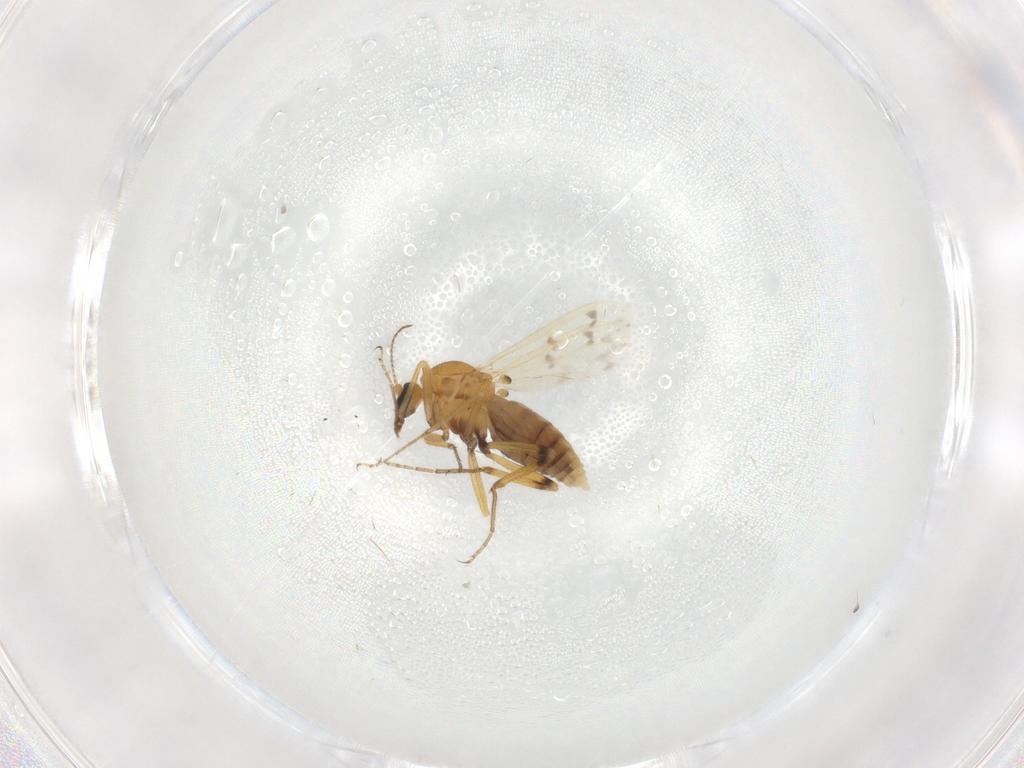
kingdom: Animalia
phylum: Arthropoda
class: Insecta
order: Diptera
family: Ceratopogonidae
